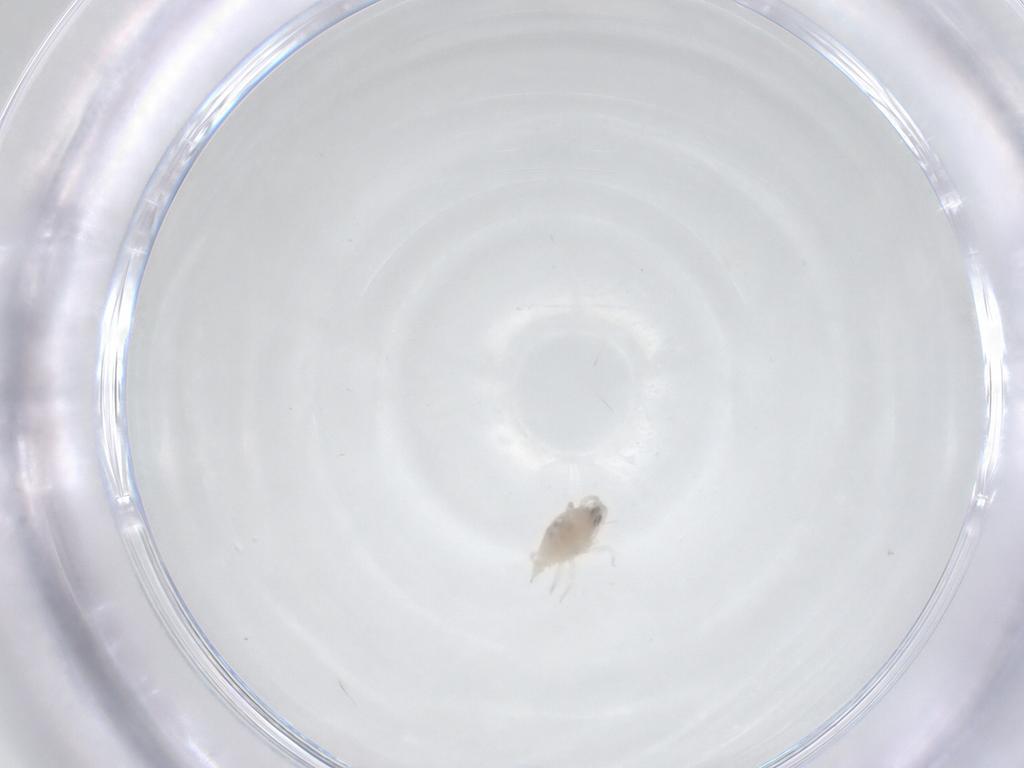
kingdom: Animalia
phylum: Arthropoda
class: Arachnida
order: Trombidiformes
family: Bdellidae
